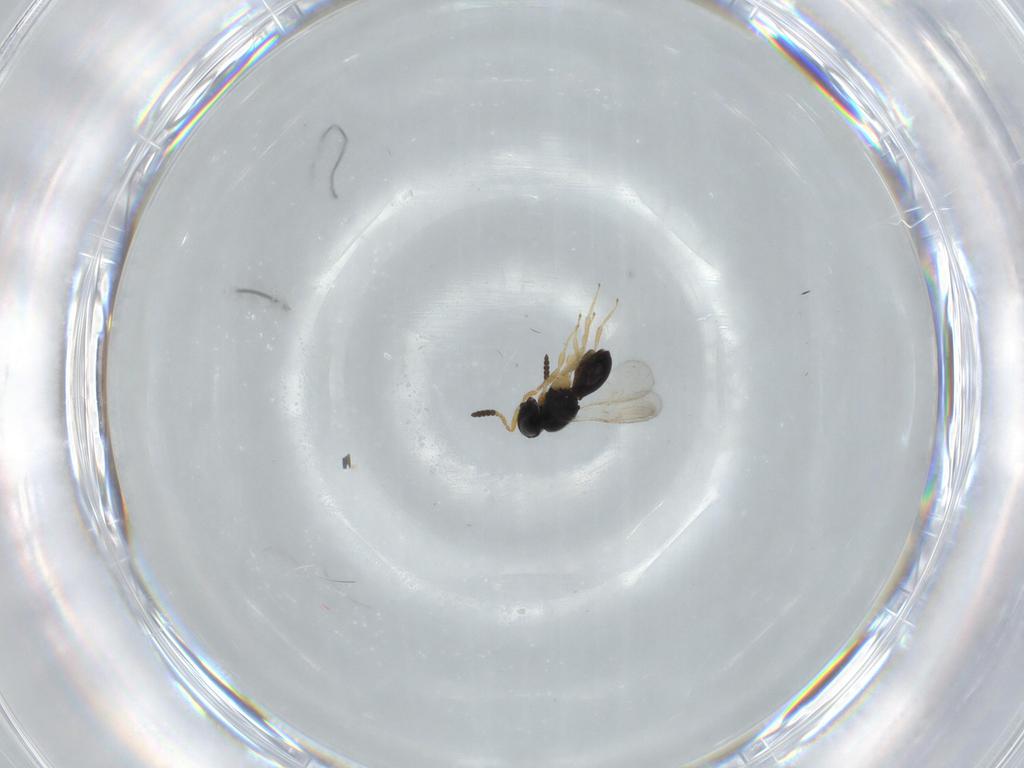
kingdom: Animalia
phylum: Arthropoda
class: Insecta
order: Hymenoptera
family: Scelionidae
